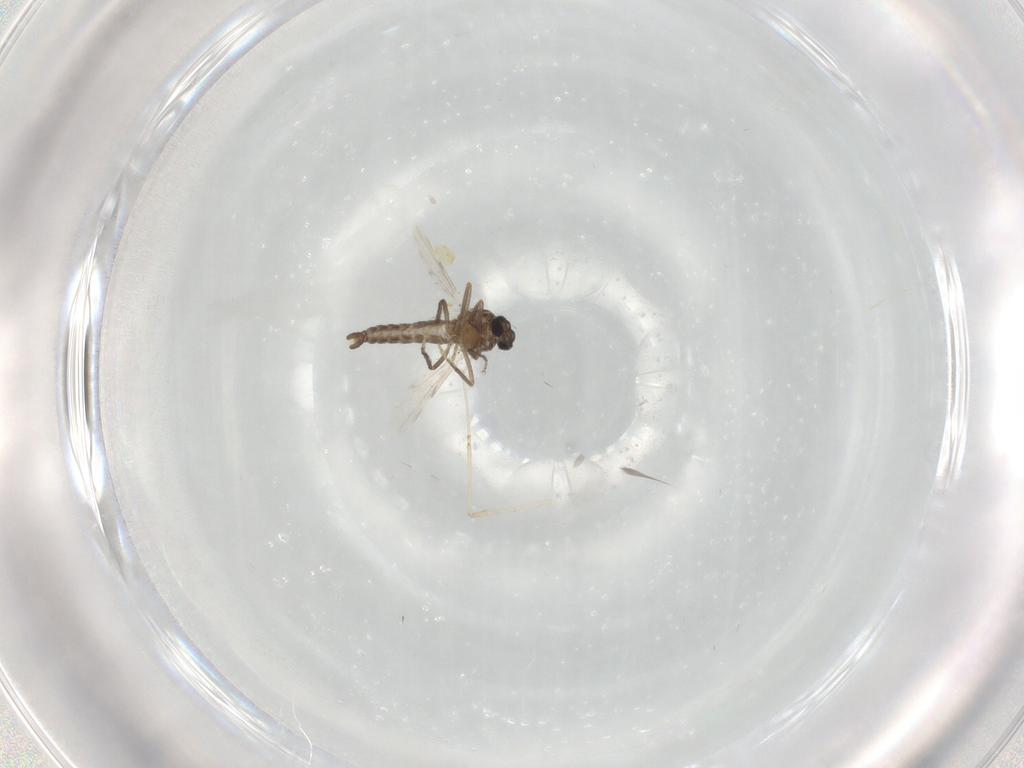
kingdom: Animalia
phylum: Arthropoda
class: Insecta
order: Diptera
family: Ceratopogonidae
